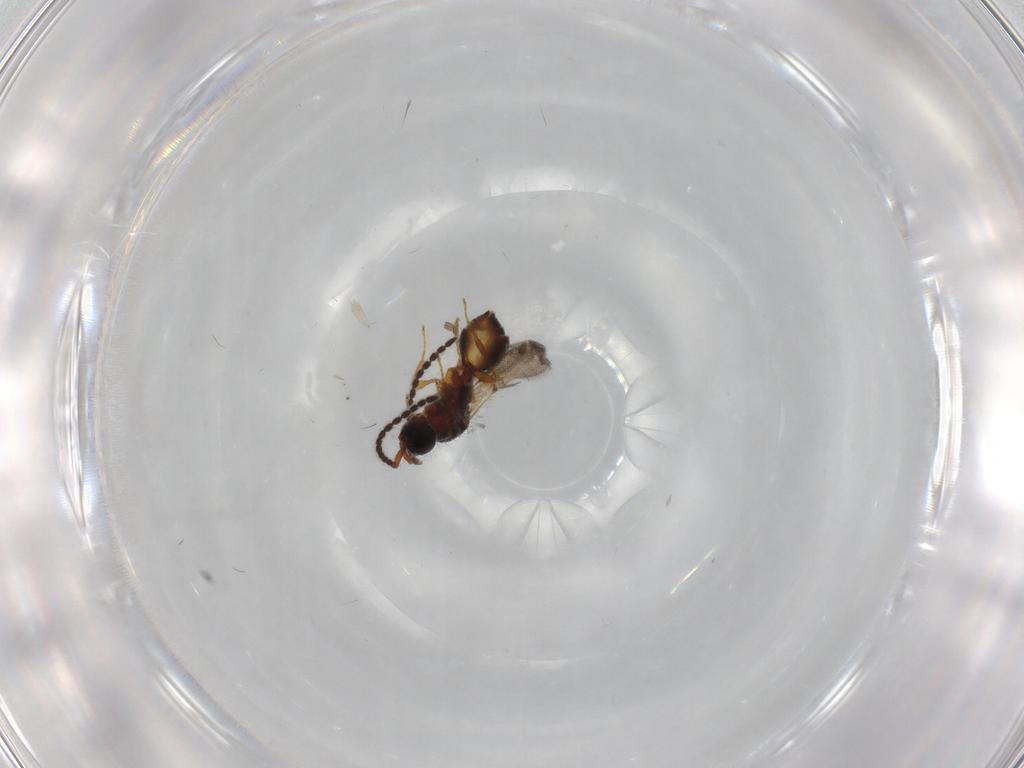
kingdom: Animalia
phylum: Arthropoda
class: Insecta
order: Hymenoptera
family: Diapriidae
